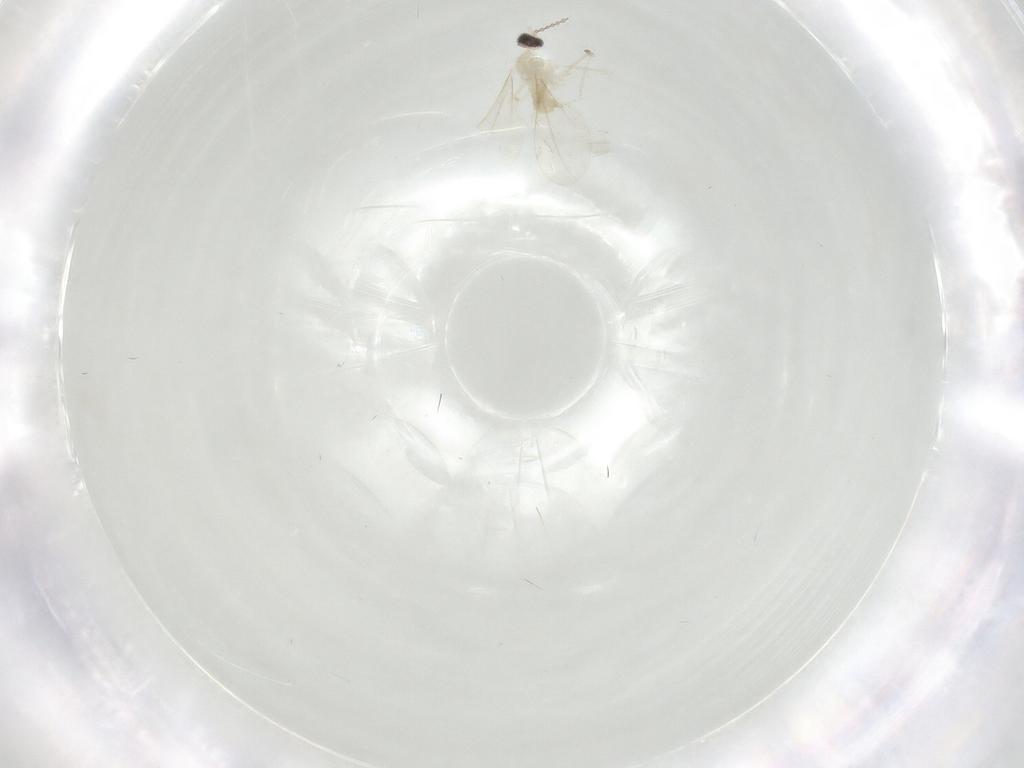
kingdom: Animalia
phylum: Arthropoda
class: Insecta
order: Diptera
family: Cecidomyiidae
